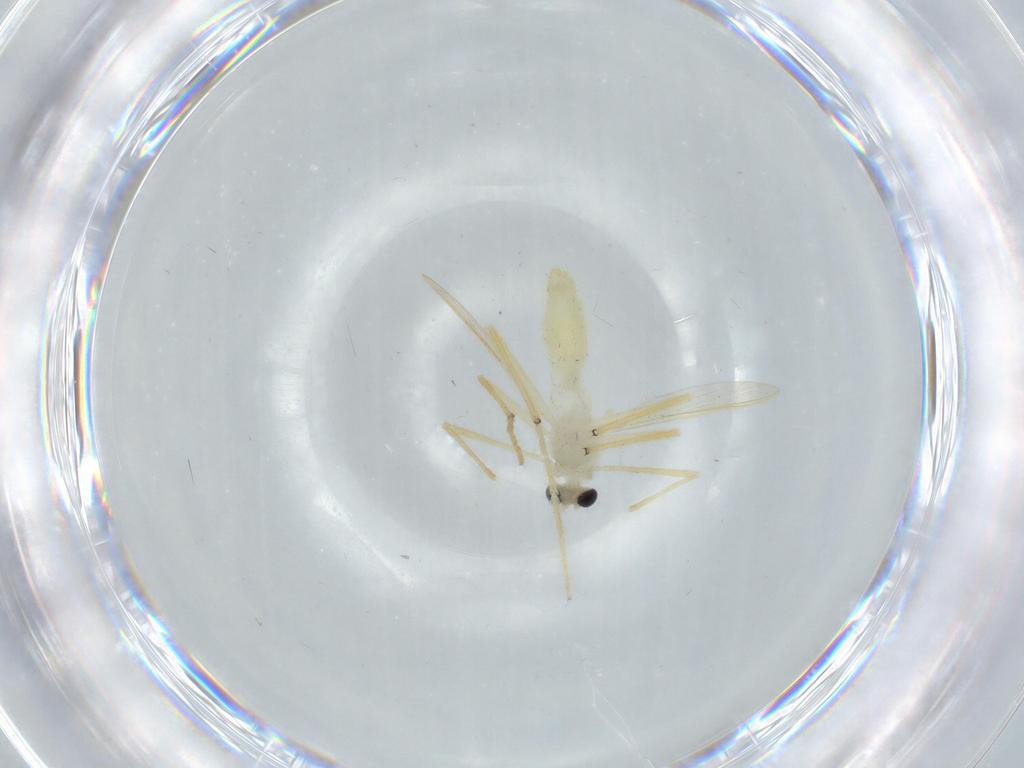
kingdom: Animalia
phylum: Arthropoda
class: Insecta
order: Diptera
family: Chironomidae
